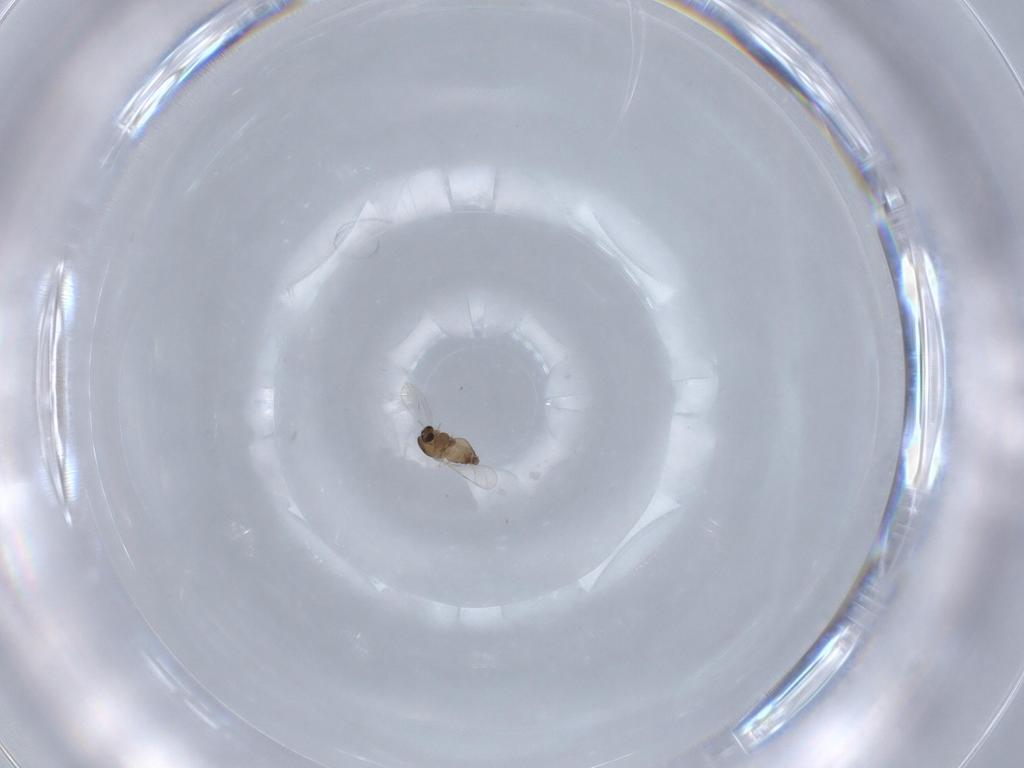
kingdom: Animalia
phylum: Arthropoda
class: Insecta
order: Diptera
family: Chironomidae
